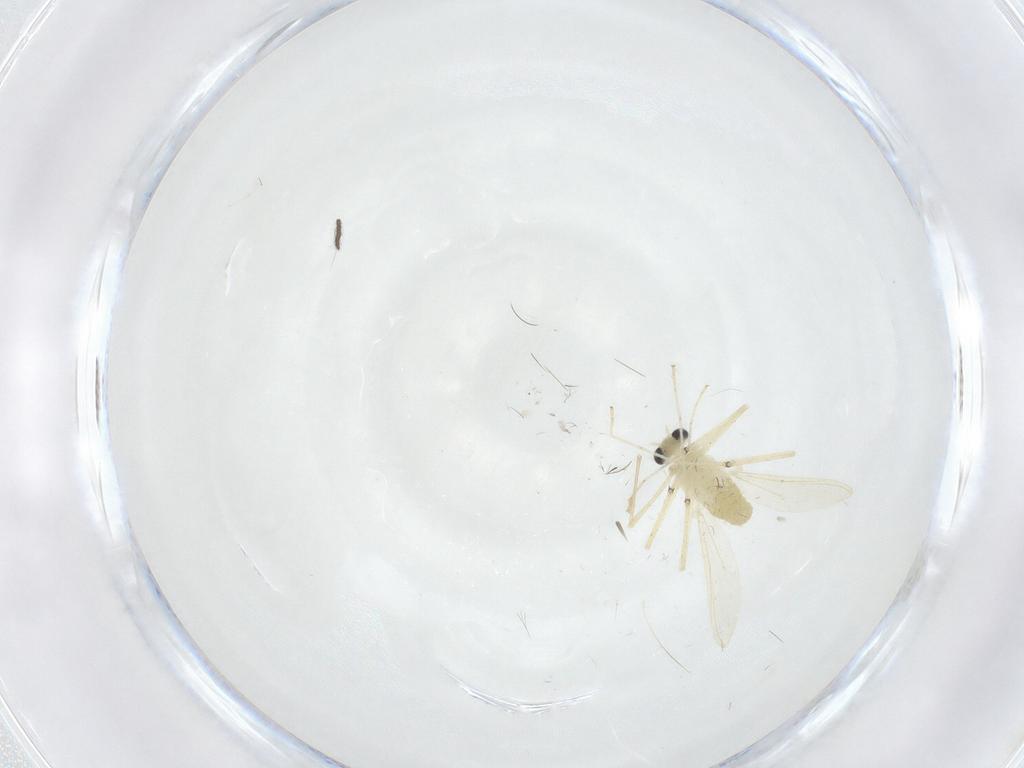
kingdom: Animalia
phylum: Arthropoda
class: Insecta
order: Diptera
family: Chironomidae
